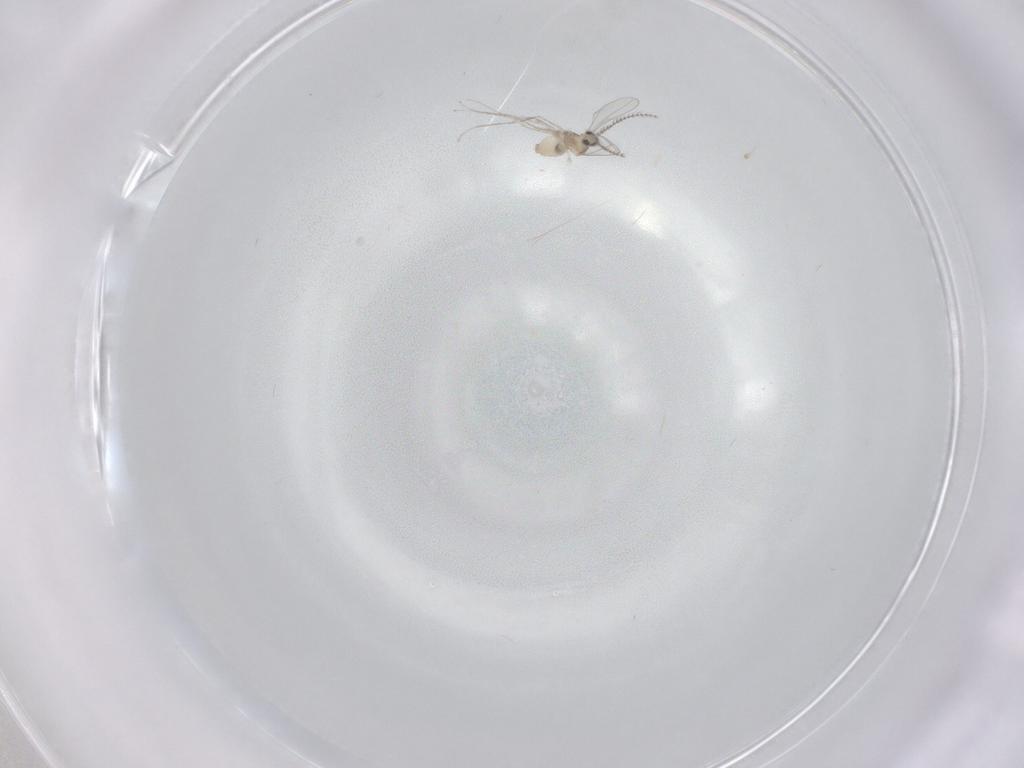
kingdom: Animalia
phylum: Arthropoda
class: Insecta
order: Diptera
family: Cecidomyiidae
